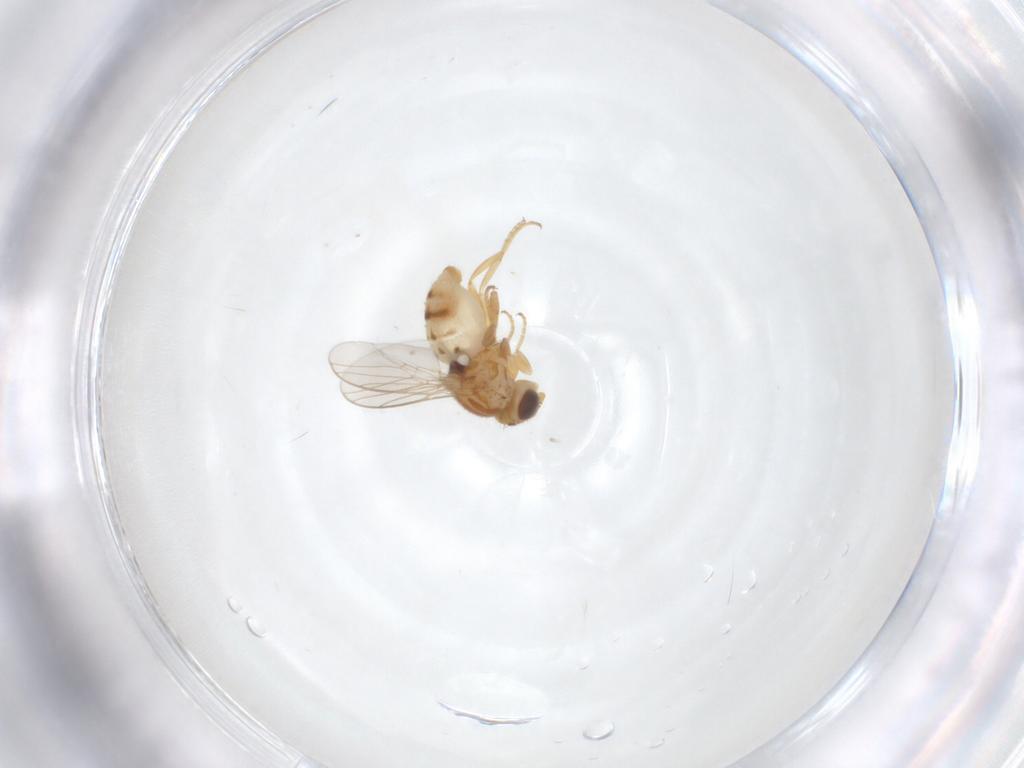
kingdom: Animalia
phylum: Arthropoda
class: Insecta
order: Diptera
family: Chloropidae
